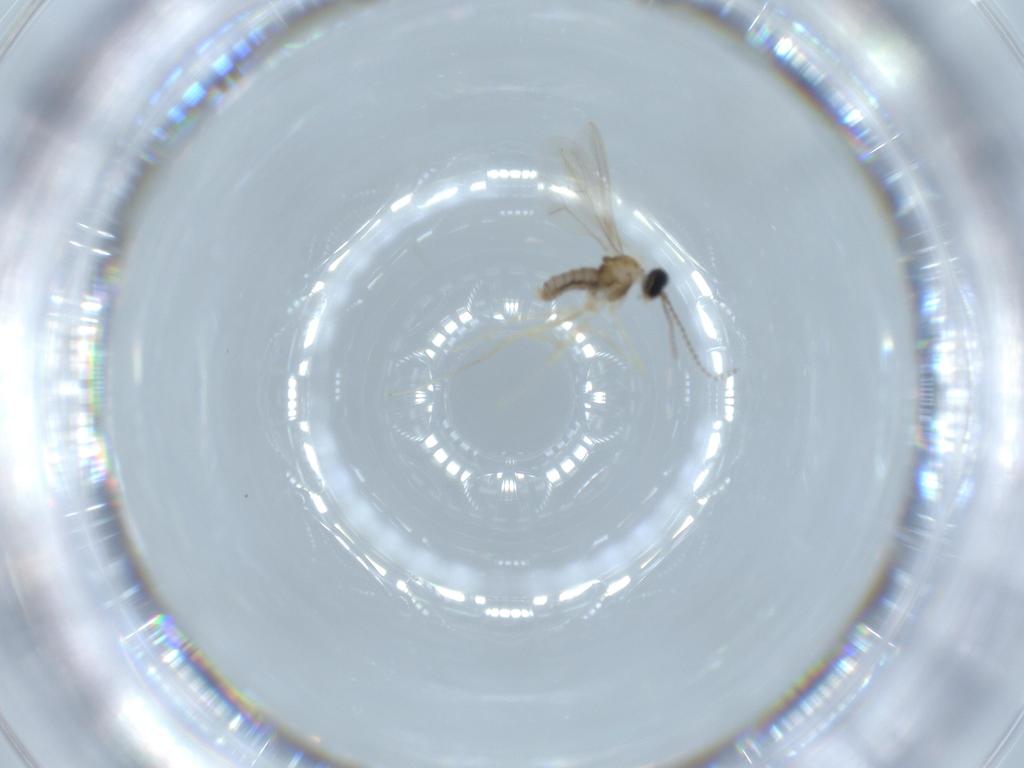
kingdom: Animalia
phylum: Arthropoda
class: Insecta
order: Diptera
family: Cecidomyiidae
